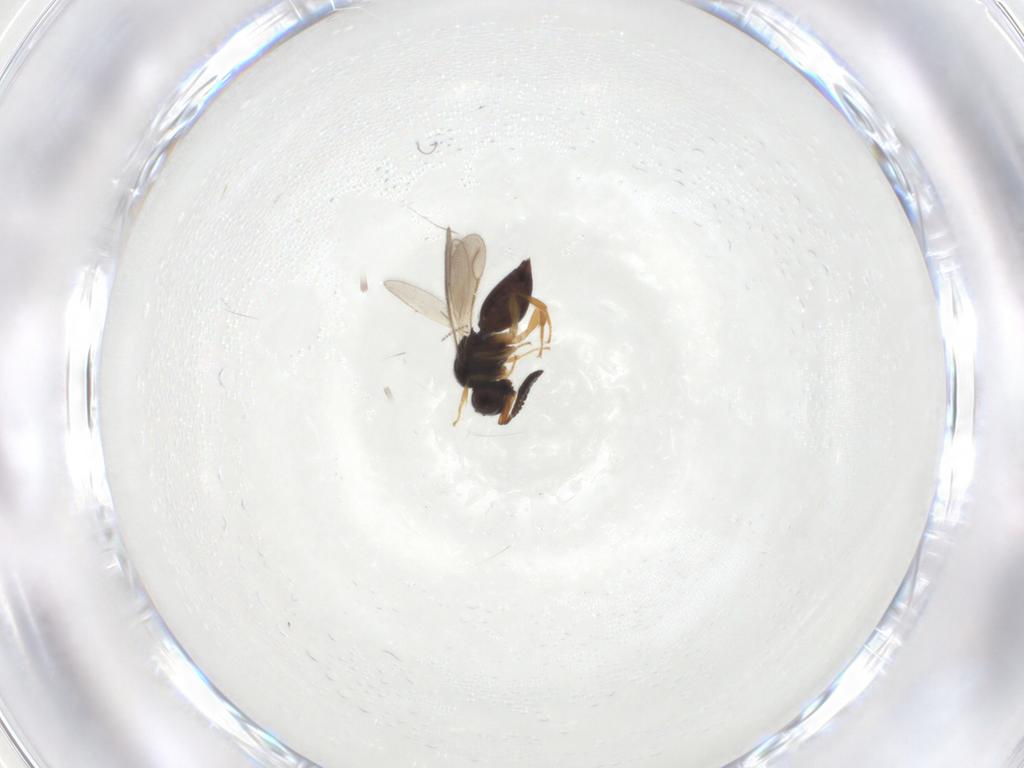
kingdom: Animalia
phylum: Arthropoda
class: Insecta
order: Hymenoptera
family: Ceraphronidae
